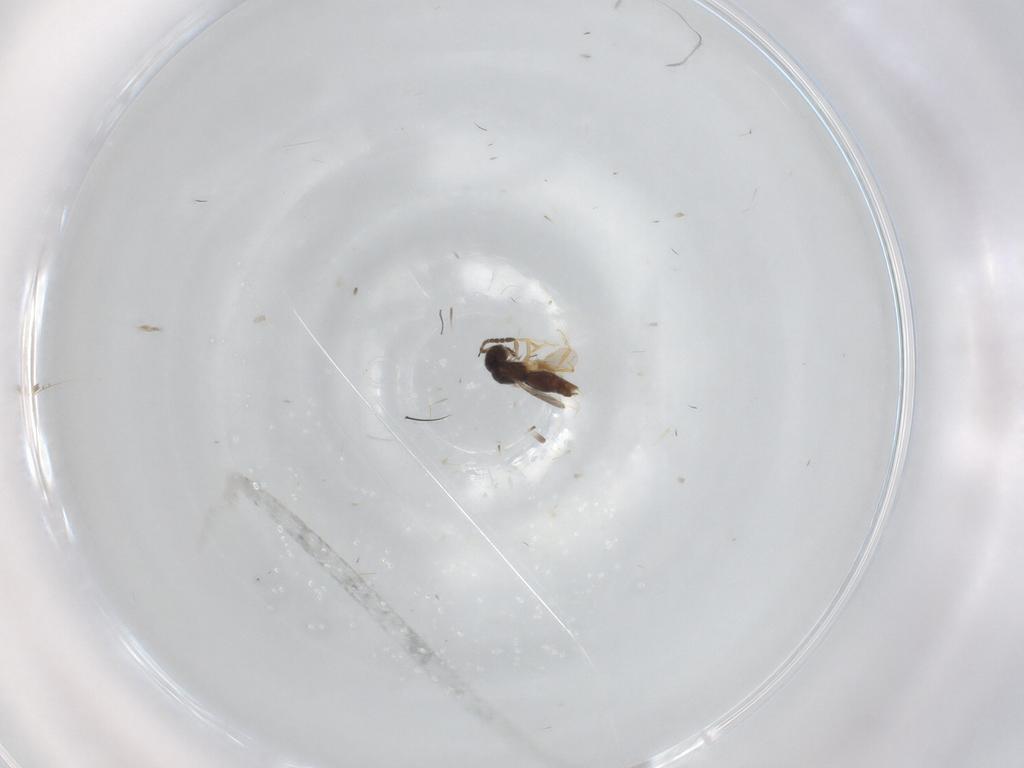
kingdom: Animalia
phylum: Arthropoda
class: Insecta
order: Hymenoptera
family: Ceraphronidae
